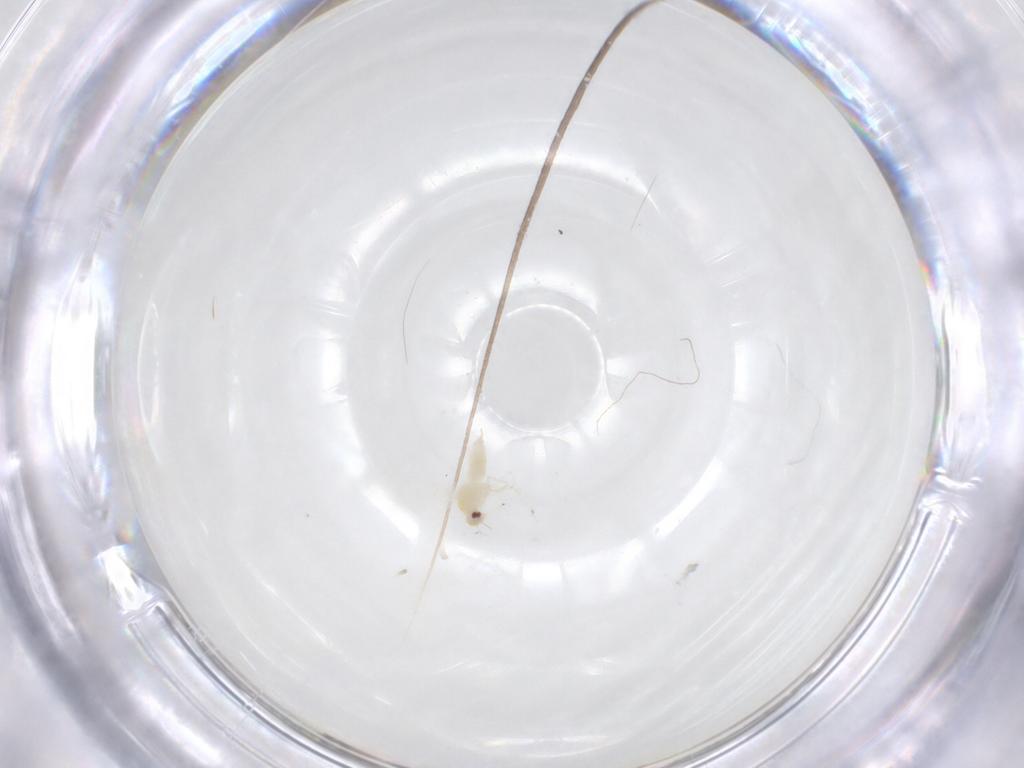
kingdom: Animalia
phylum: Arthropoda
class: Insecta
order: Hemiptera
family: Aleyrodidae
